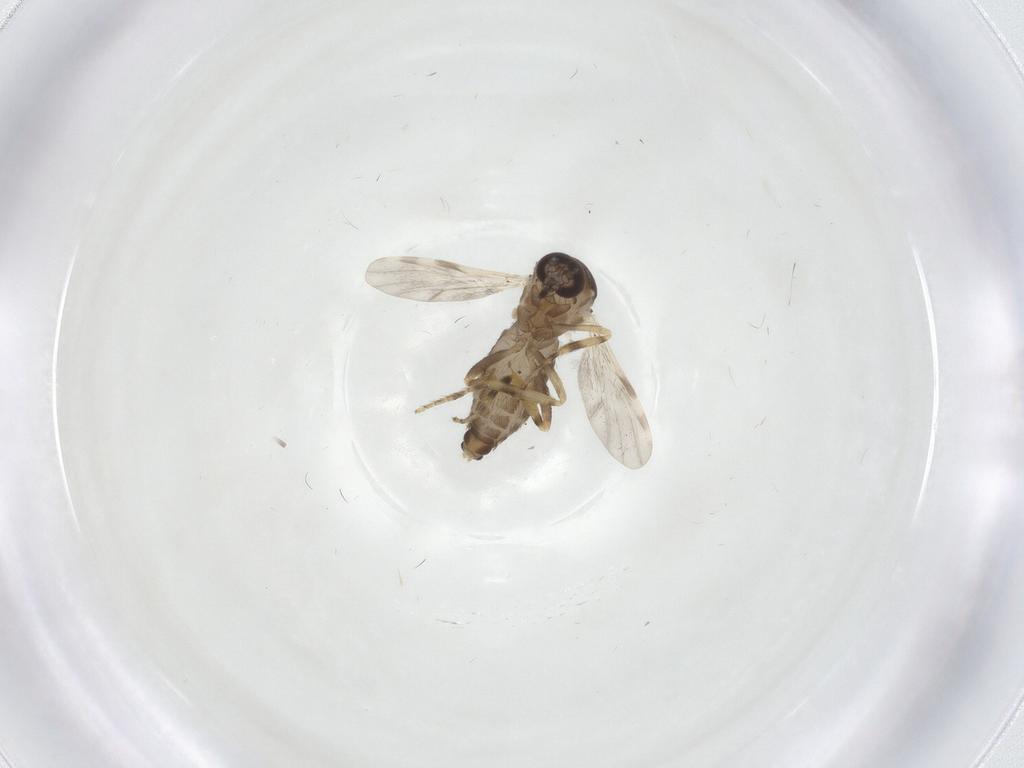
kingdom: Animalia
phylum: Arthropoda
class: Insecta
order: Diptera
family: Ceratopogonidae
